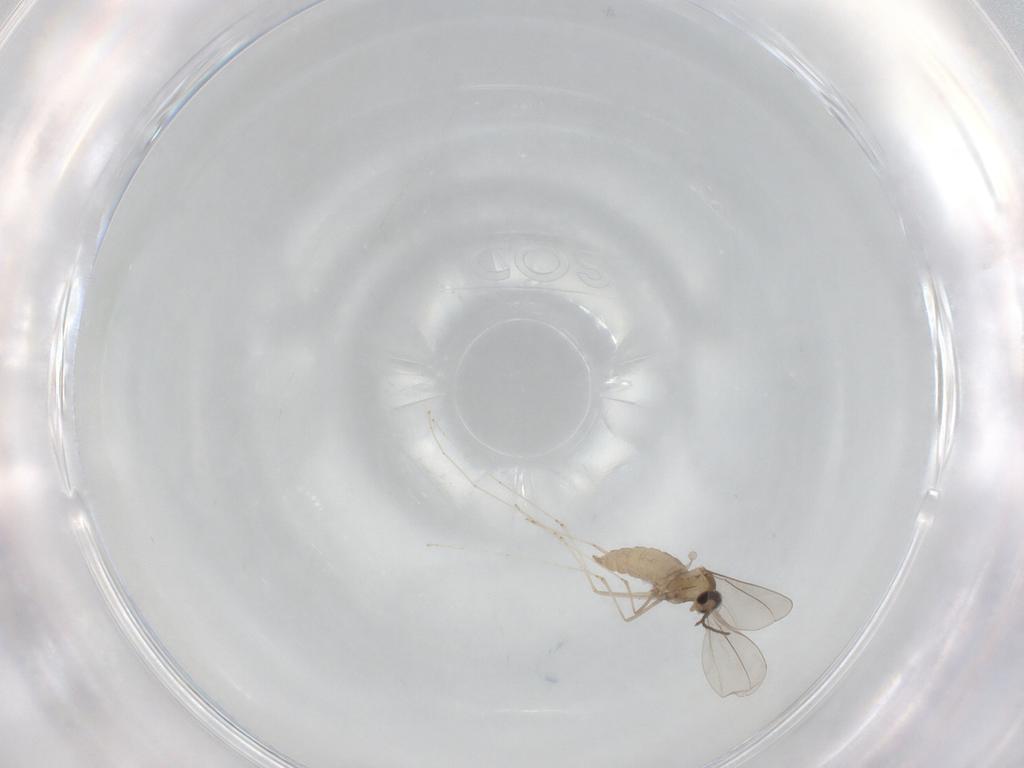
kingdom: Animalia
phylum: Arthropoda
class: Insecta
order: Diptera
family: Cecidomyiidae
